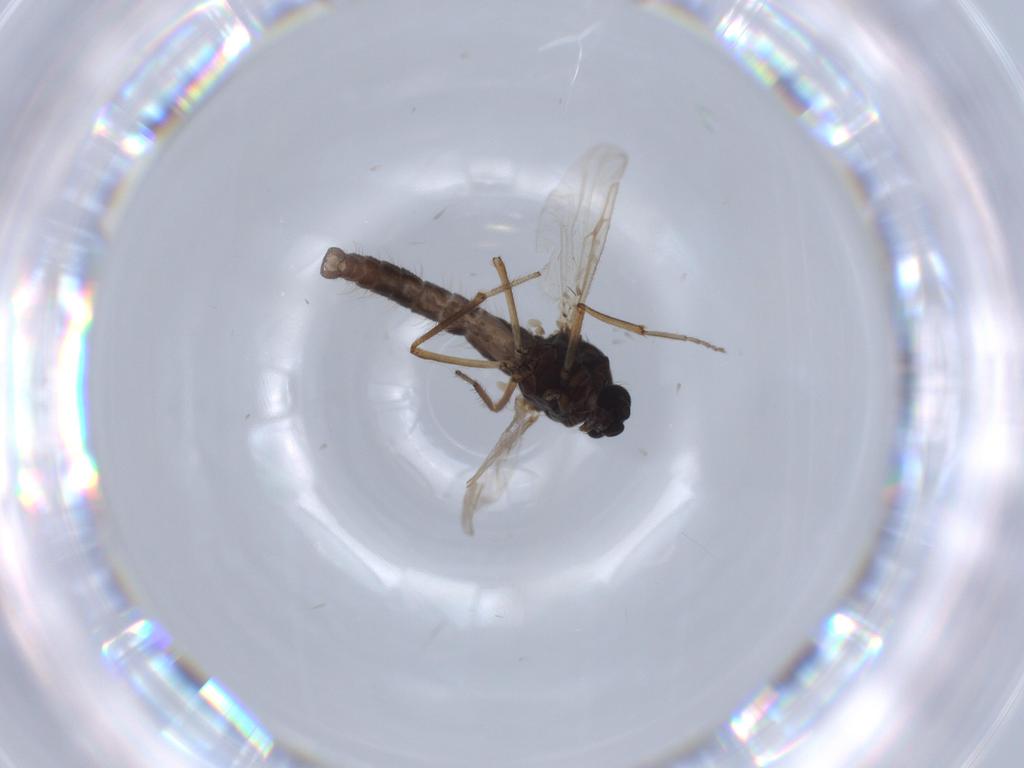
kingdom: Animalia
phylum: Arthropoda
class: Insecta
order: Diptera
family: Ceratopogonidae
